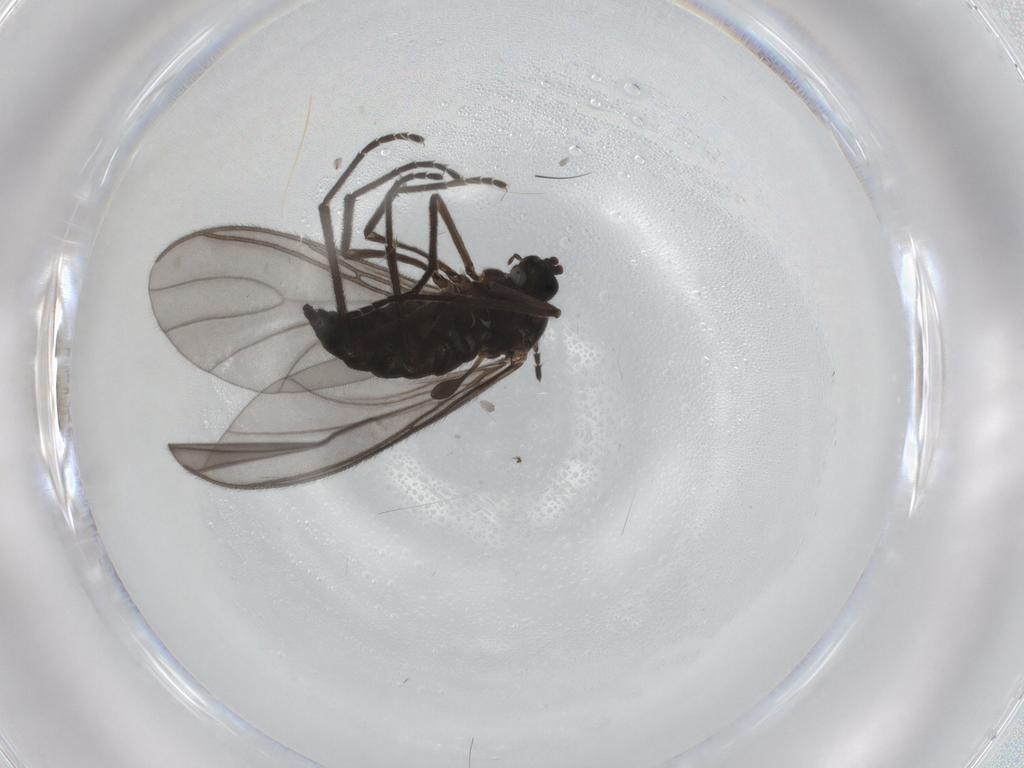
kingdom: Animalia
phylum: Arthropoda
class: Insecta
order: Diptera
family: Sciaridae
